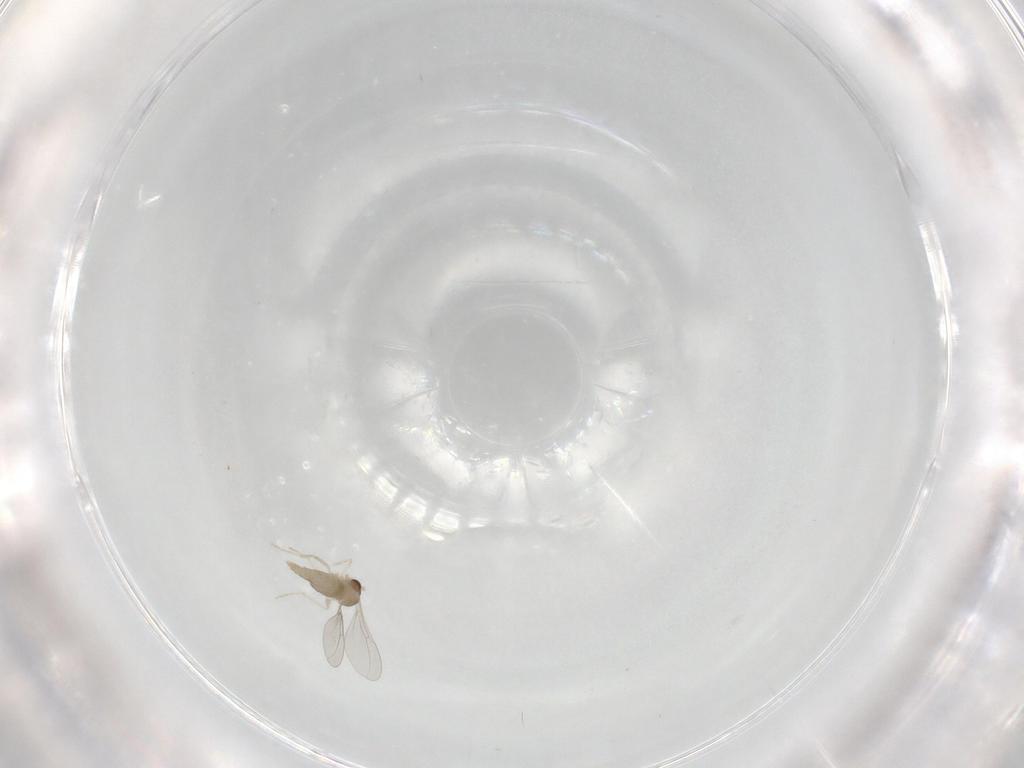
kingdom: Animalia
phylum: Arthropoda
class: Insecta
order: Diptera
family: Cecidomyiidae
